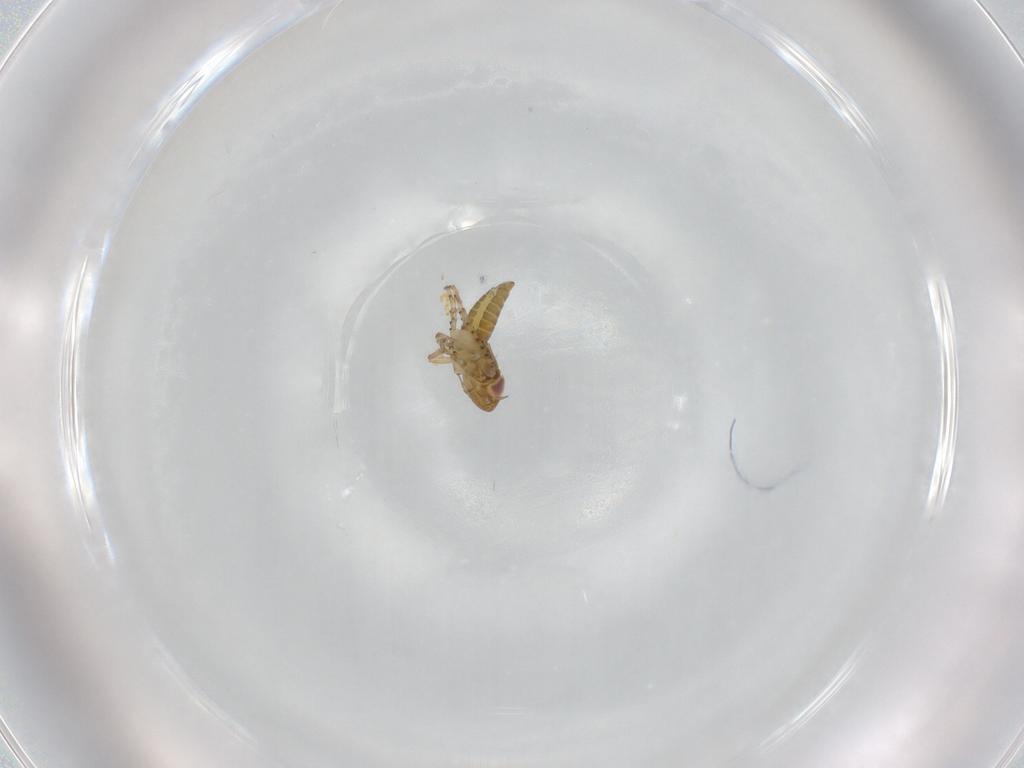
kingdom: Animalia
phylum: Arthropoda
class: Insecta
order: Hemiptera
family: Cicadellidae
